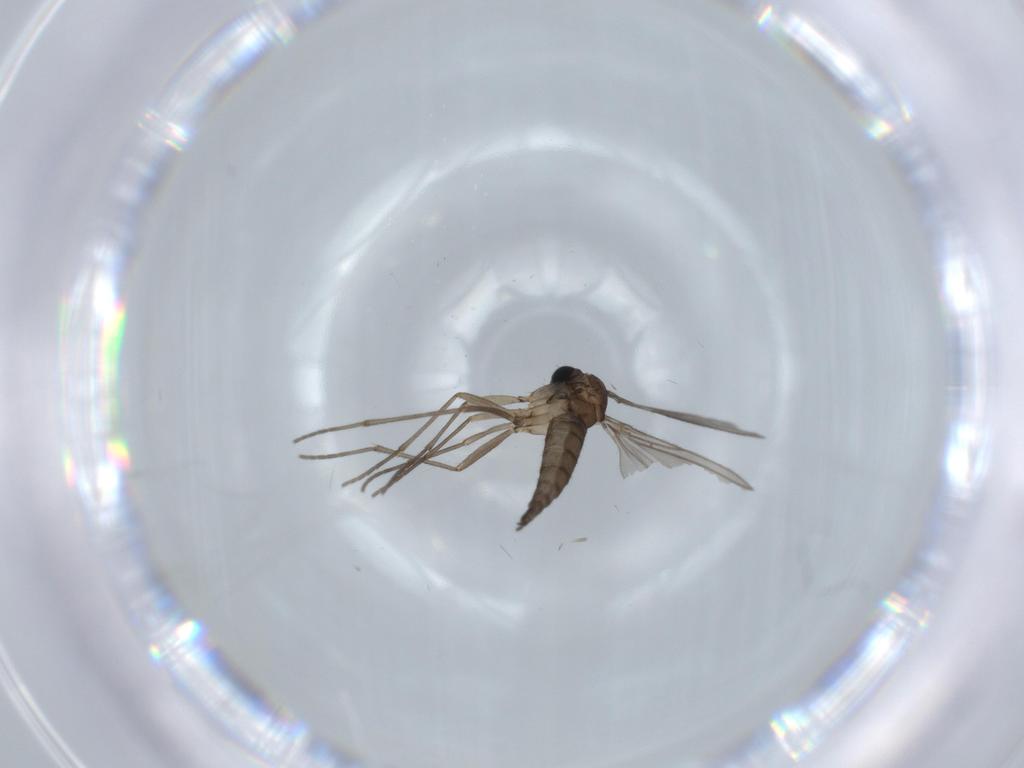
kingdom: Animalia
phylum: Arthropoda
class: Insecta
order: Diptera
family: Sciaridae
